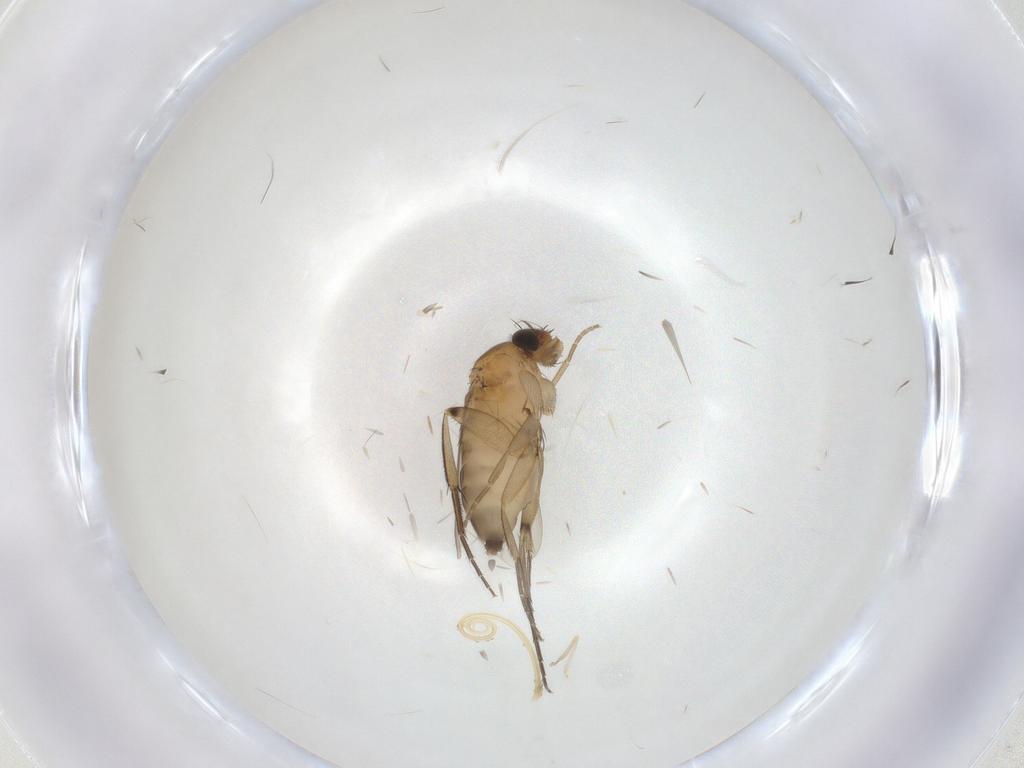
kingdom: Animalia
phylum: Arthropoda
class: Insecta
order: Diptera
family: Phoridae
